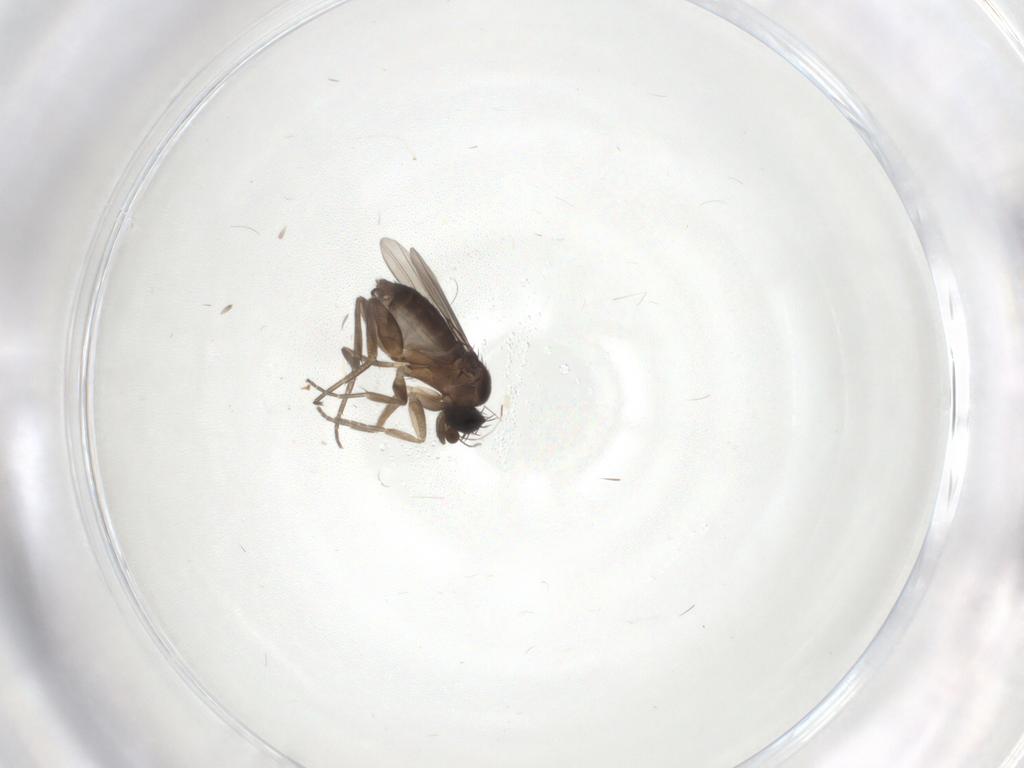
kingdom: Animalia
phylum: Arthropoda
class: Insecta
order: Diptera
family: Phoridae
